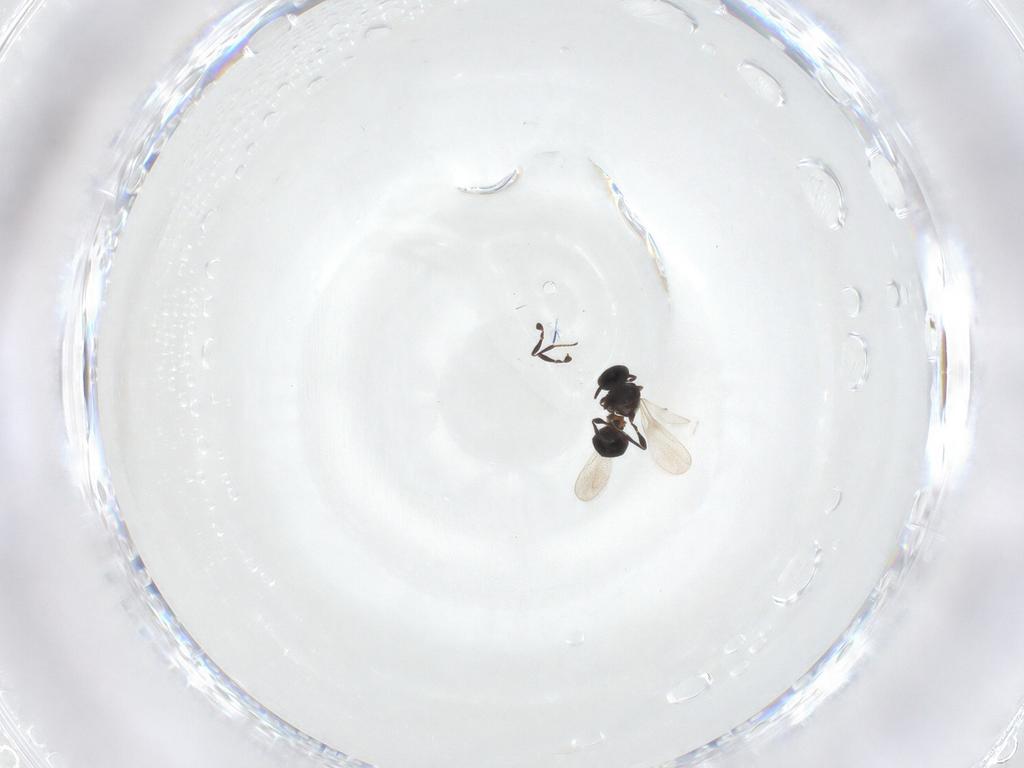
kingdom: Animalia
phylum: Arthropoda
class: Insecta
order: Hymenoptera
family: Platygastridae
